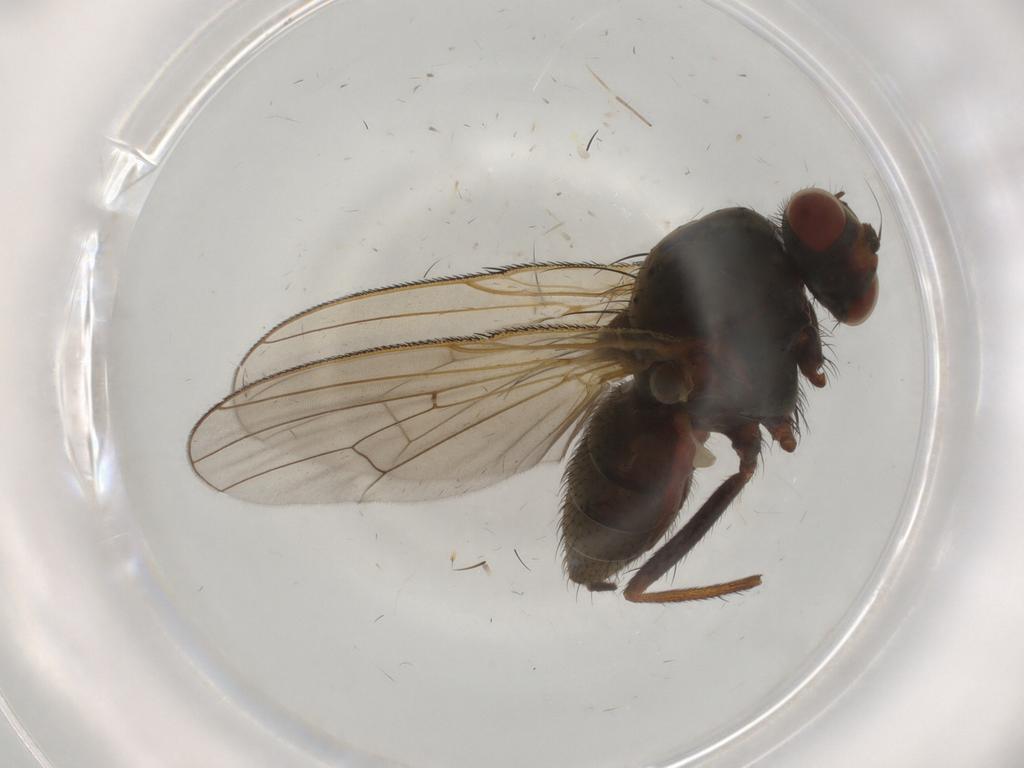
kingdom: Animalia
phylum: Arthropoda
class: Insecta
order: Diptera
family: Anthomyiidae
